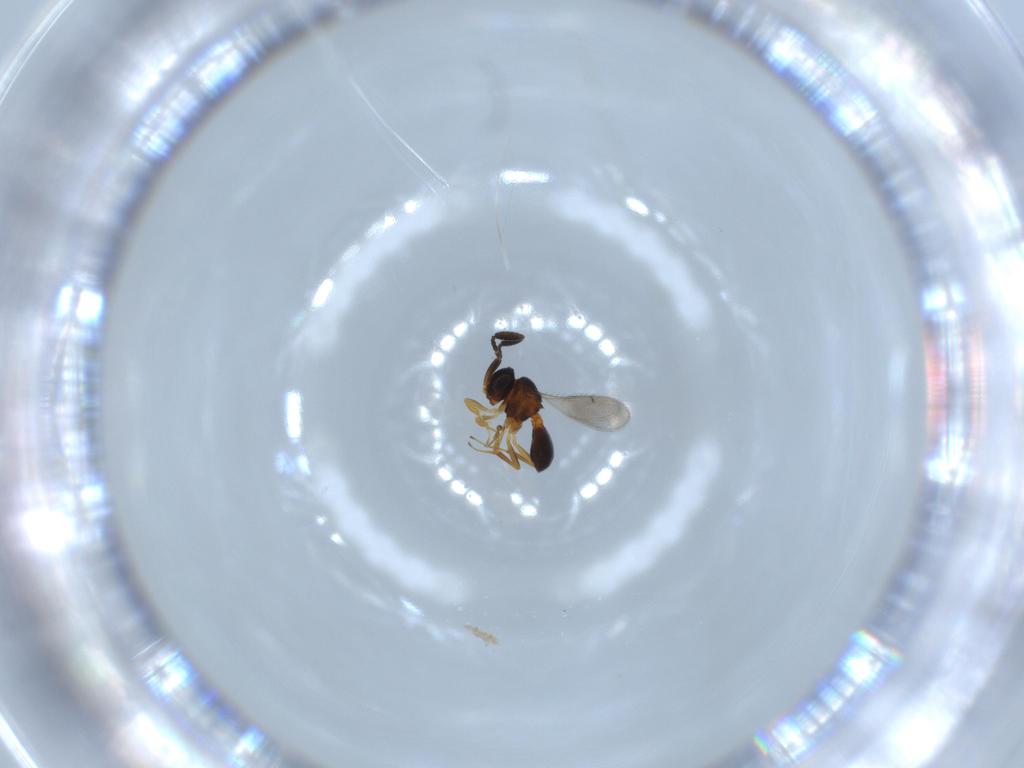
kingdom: Animalia
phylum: Arthropoda
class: Insecta
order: Hymenoptera
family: Scelionidae
